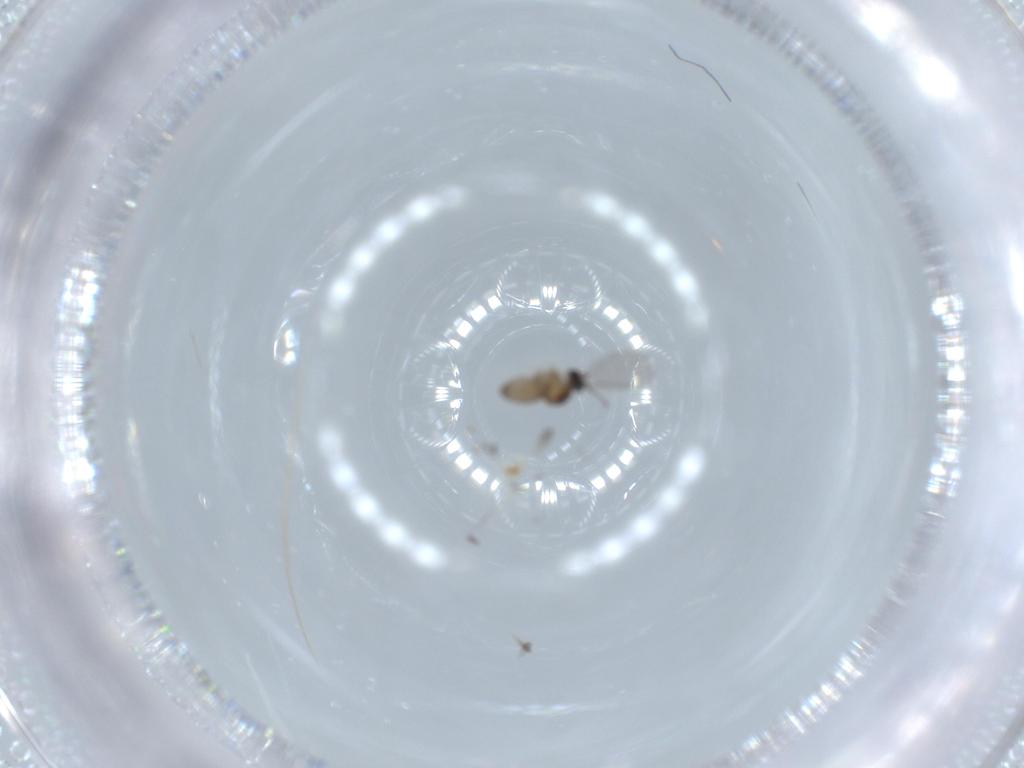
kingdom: Animalia
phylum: Arthropoda
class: Insecta
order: Diptera
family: Cecidomyiidae
